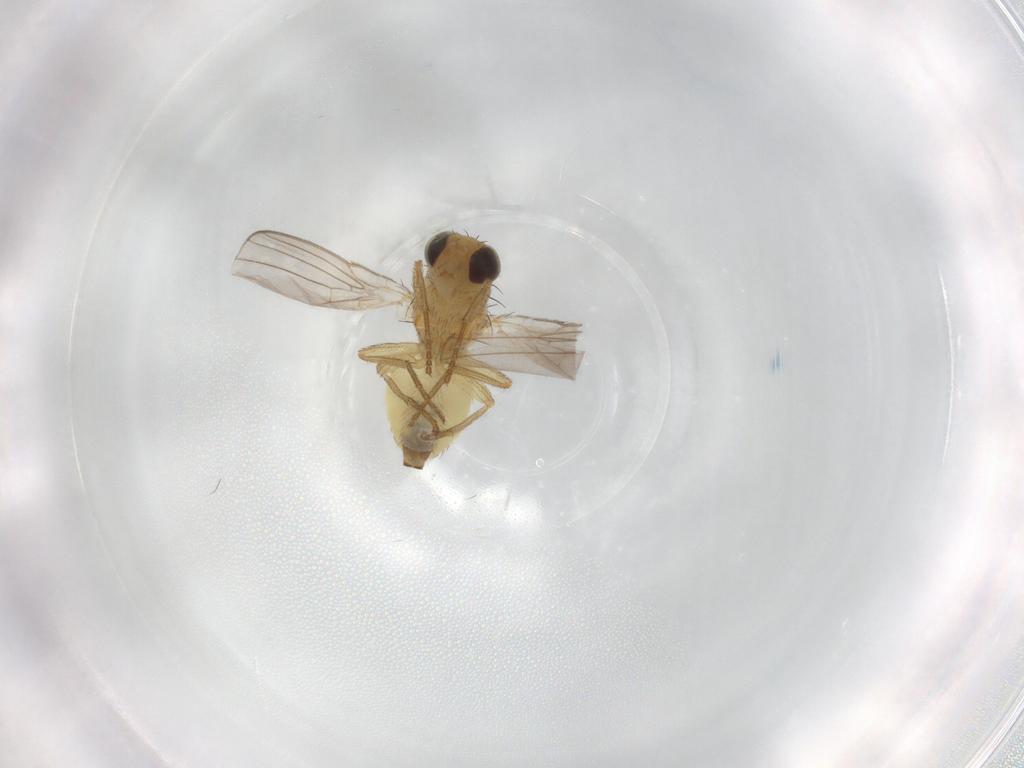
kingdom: Animalia
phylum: Arthropoda
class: Insecta
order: Diptera
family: Agromyzidae
